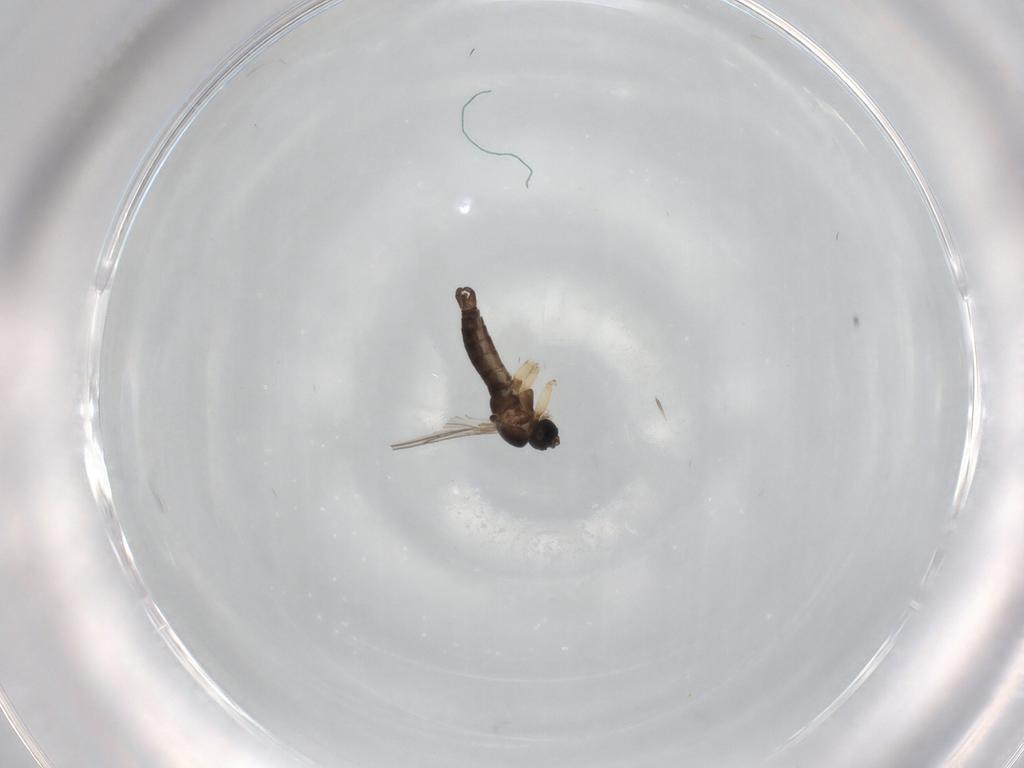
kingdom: Animalia
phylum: Arthropoda
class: Insecta
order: Diptera
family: Sciaridae
